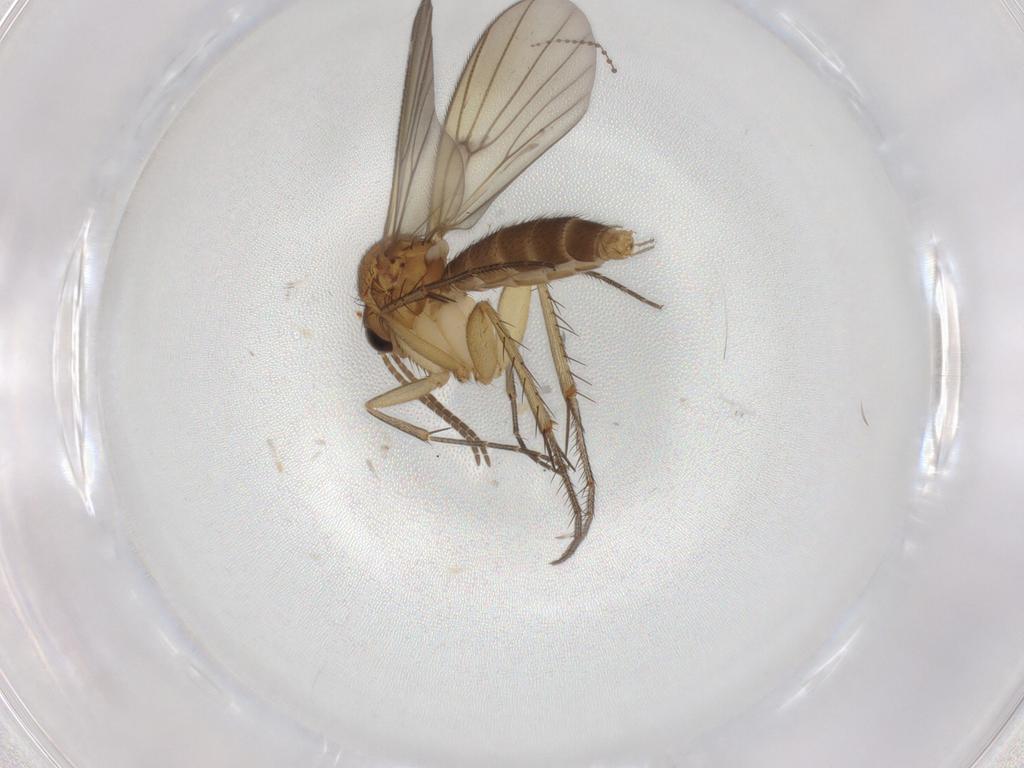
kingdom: Animalia
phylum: Arthropoda
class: Insecta
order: Diptera
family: Mycetophilidae
